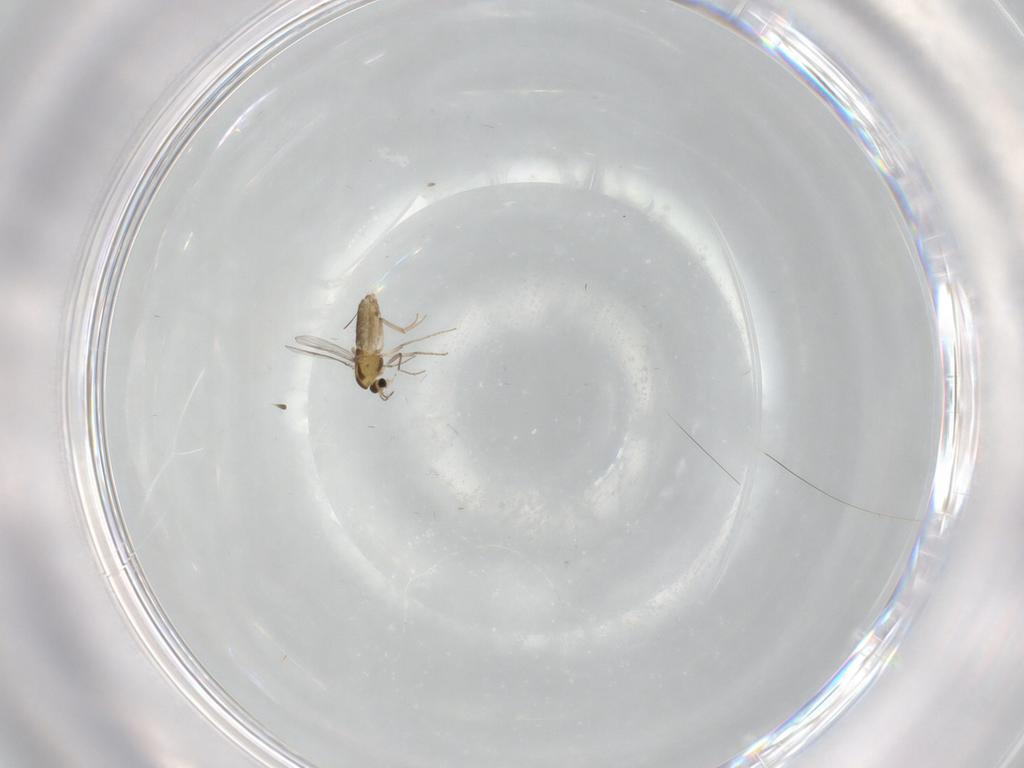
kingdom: Animalia
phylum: Arthropoda
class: Insecta
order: Diptera
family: Chironomidae
